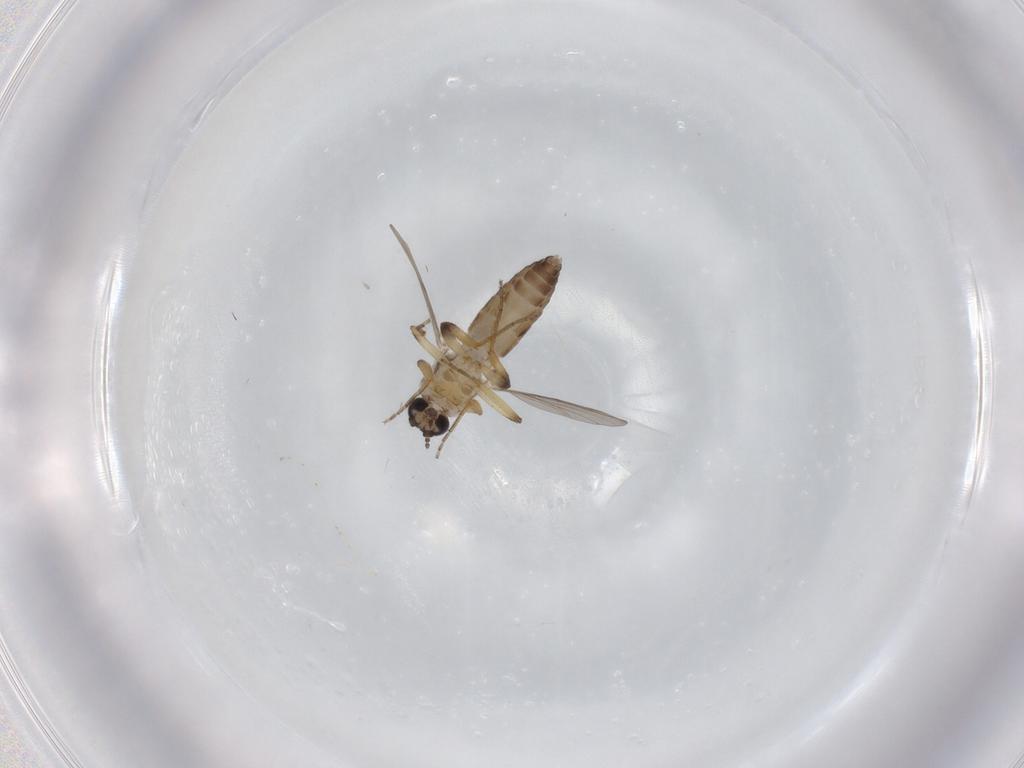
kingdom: Animalia
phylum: Arthropoda
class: Insecta
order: Diptera
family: Ceratopogonidae
